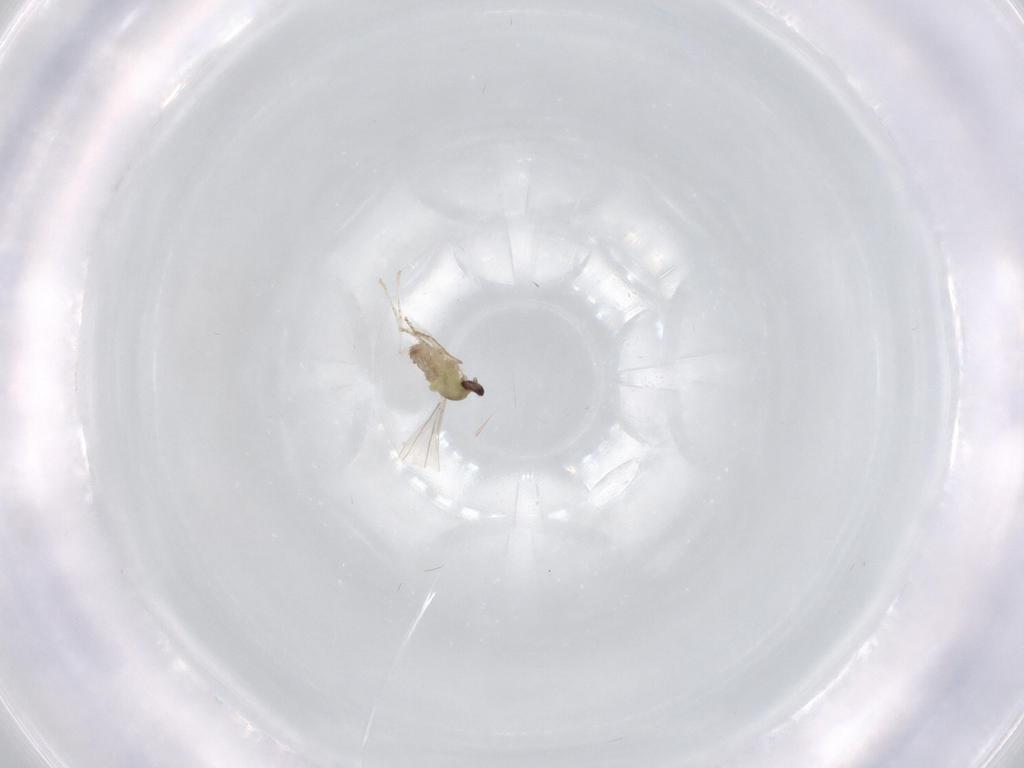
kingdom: Animalia
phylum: Arthropoda
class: Insecta
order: Diptera
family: Cecidomyiidae
